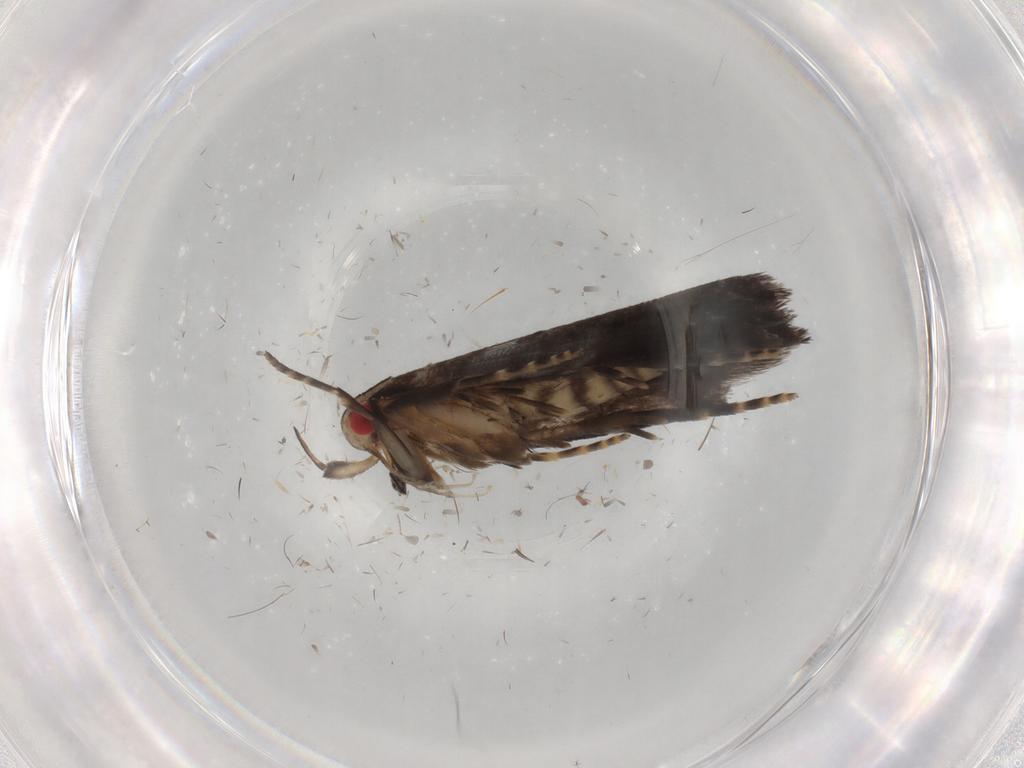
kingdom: Animalia
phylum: Arthropoda
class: Insecta
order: Lepidoptera
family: Gelechiidae
